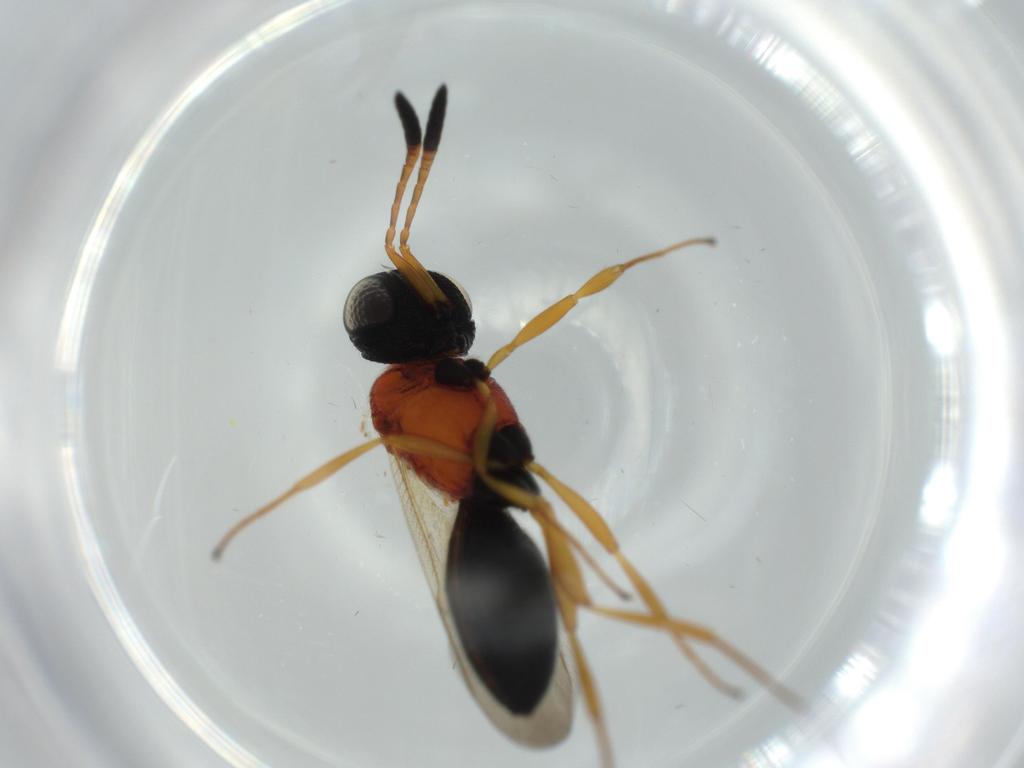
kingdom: Animalia
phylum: Arthropoda
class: Insecta
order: Hymenoptera
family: Scelionidae
